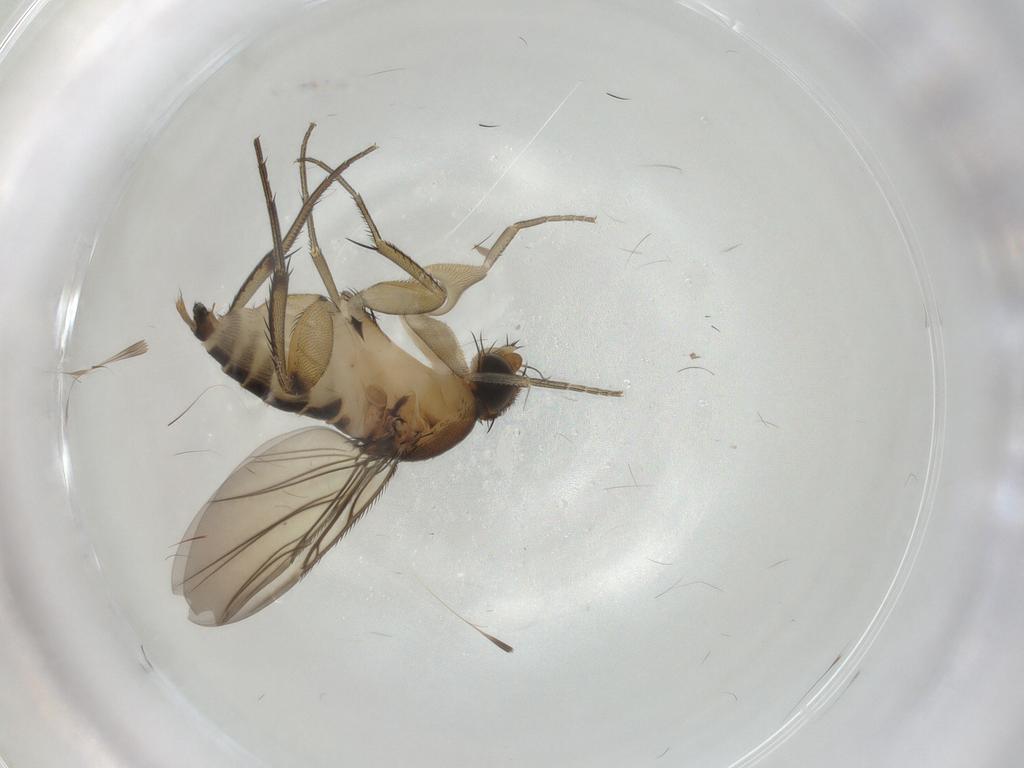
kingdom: Animalia
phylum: Arthropoda
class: Insecta
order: Diptera
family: Phoridae
